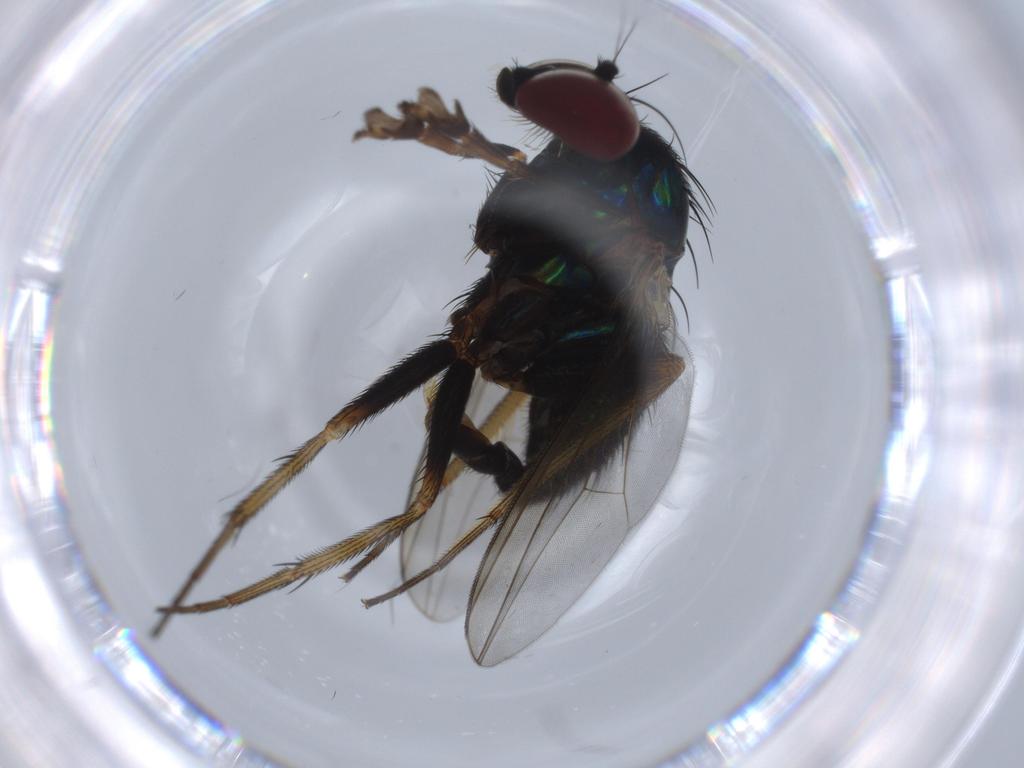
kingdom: Animalia
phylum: Arthropoda
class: Insecta
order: Diptera
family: Dolichopodidae
